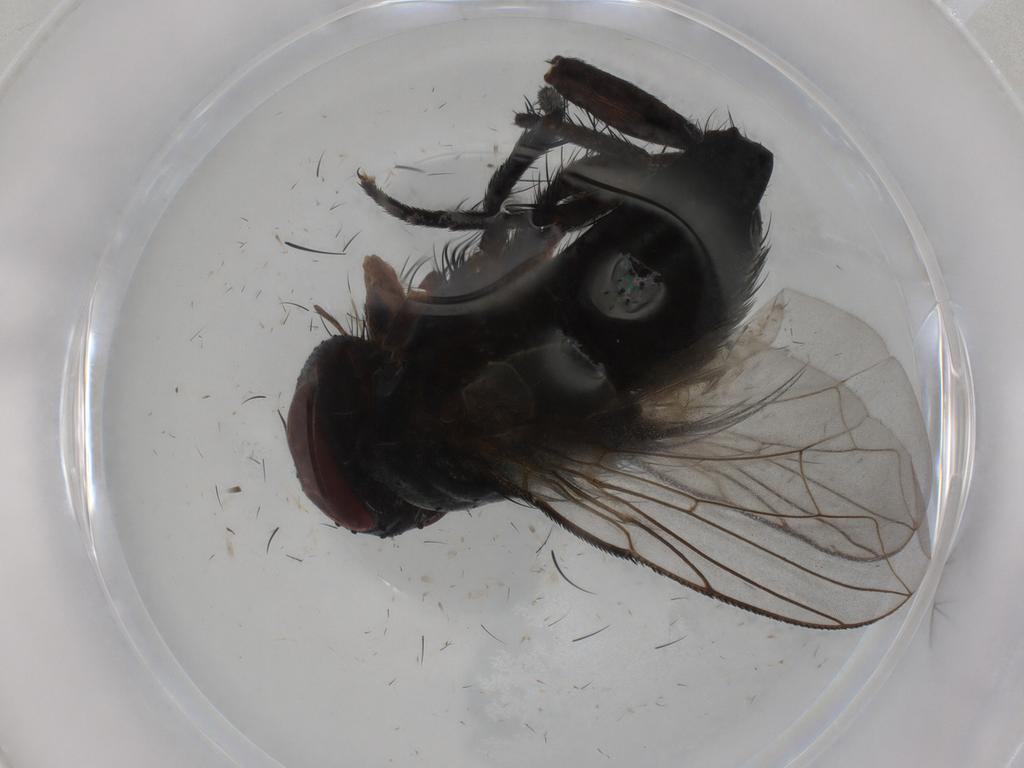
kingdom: Animalia
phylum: Arthropoda
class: Insecta
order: Diptera
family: Tachinidae
